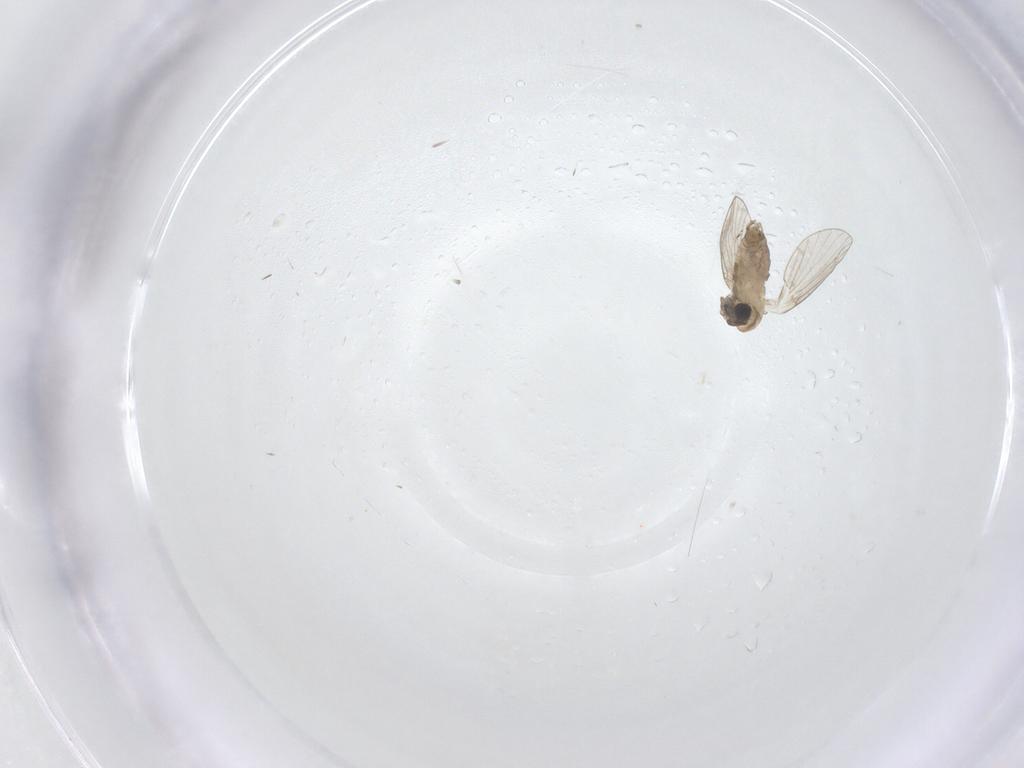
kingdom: Animalia
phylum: Arthropoda
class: Insecta
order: Diptera
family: Psychodidae
